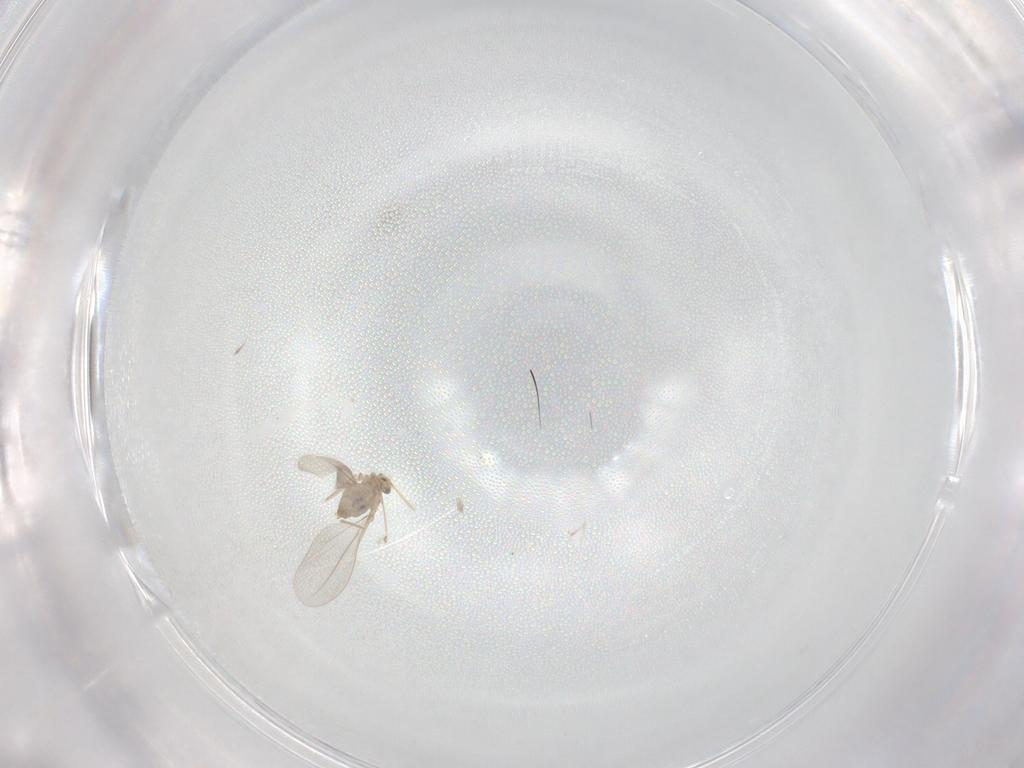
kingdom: Animalia
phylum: Arthropoda
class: Insecta
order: Diptera
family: Cecidomyiidae
